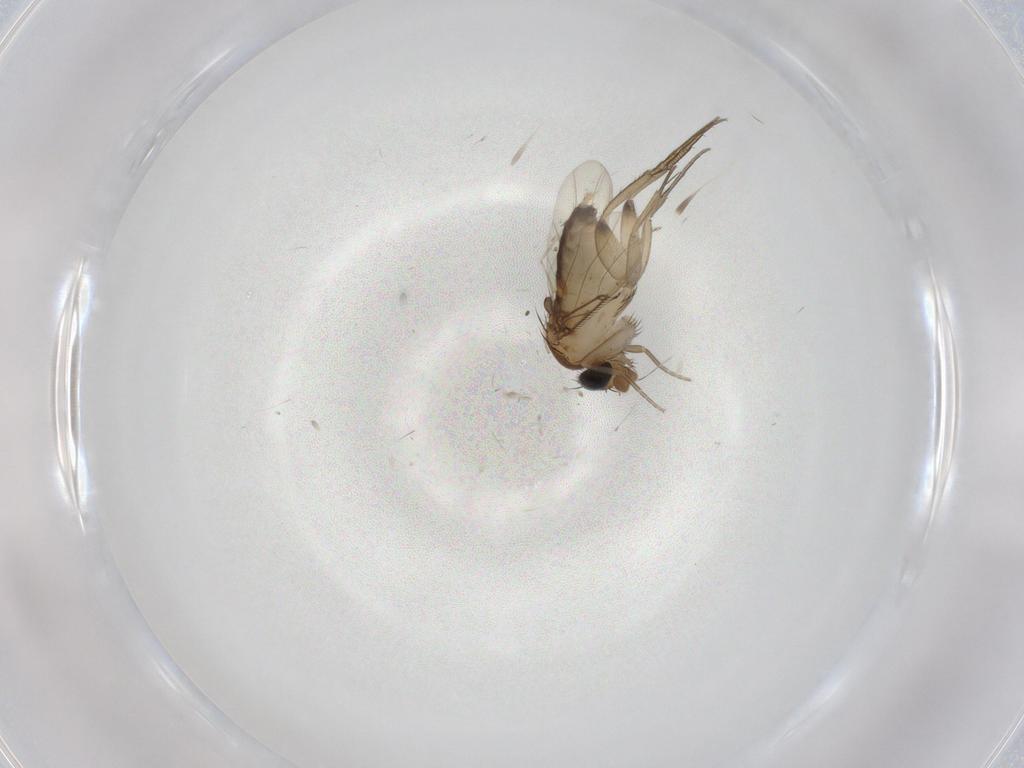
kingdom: Animalia
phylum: Arthropoda
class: Insecta
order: Diptera
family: Phoridae
